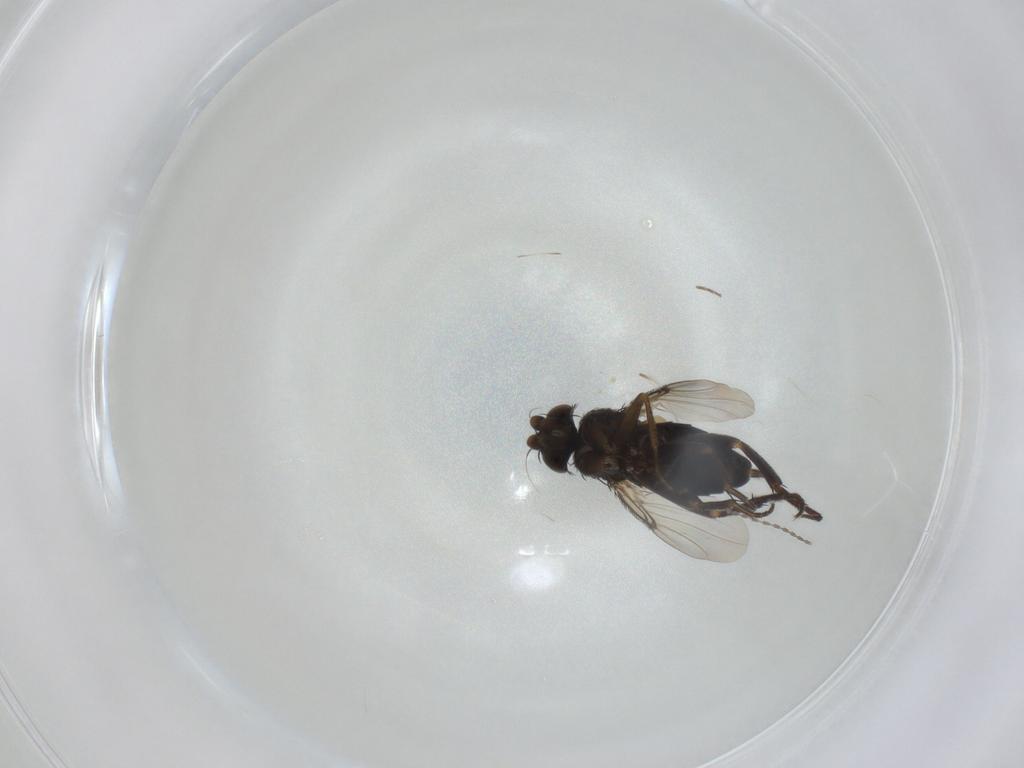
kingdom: Animalia
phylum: Arthropoda
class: Insecta
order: Diptera
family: Phoridae
